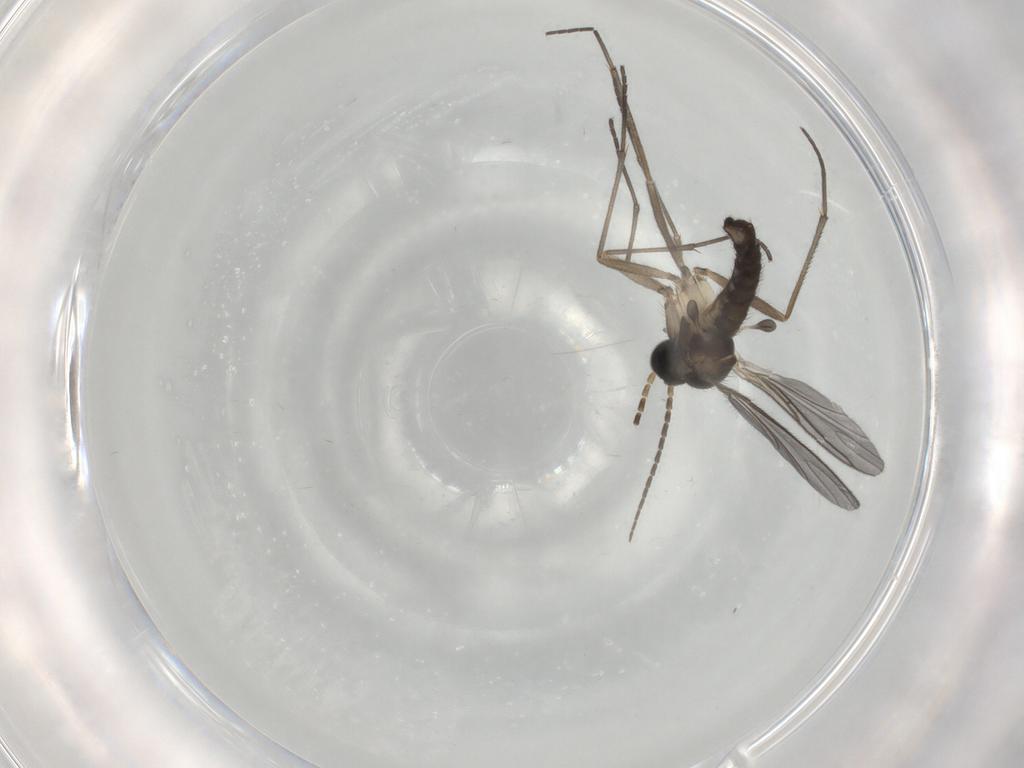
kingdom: Animalia
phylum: Arthropoda
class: Insecta
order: Diptera
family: Sciaridae
